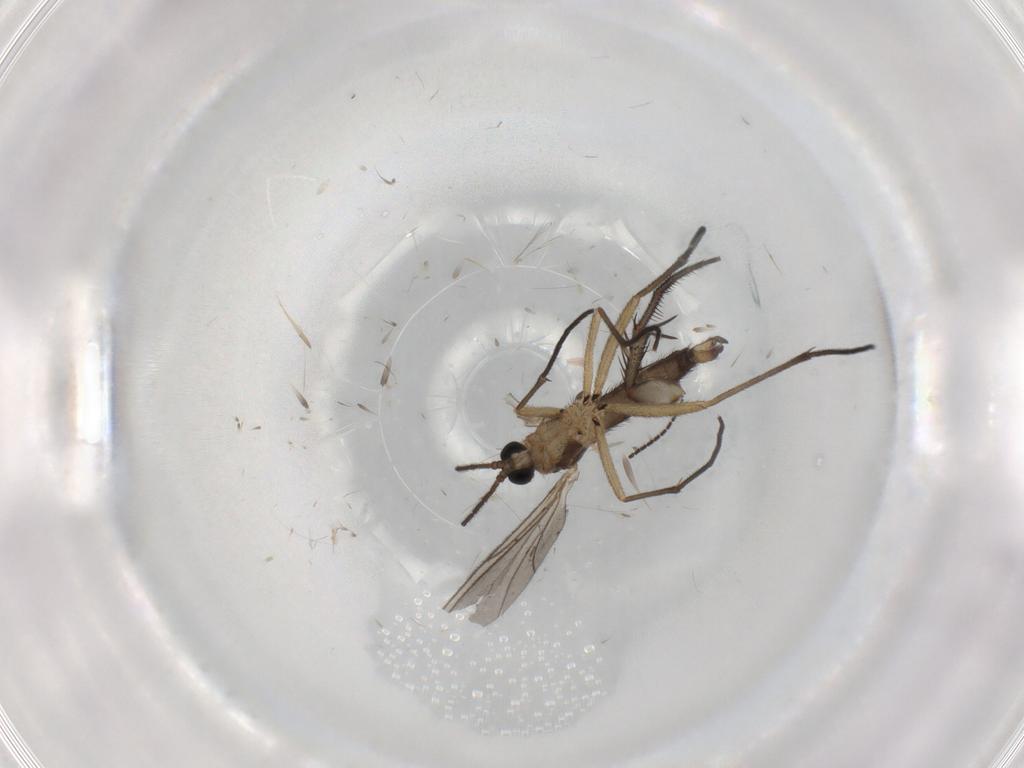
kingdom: Animalia
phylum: Arthropoda
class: Insecta
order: Diptera
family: Mycetophilidae
